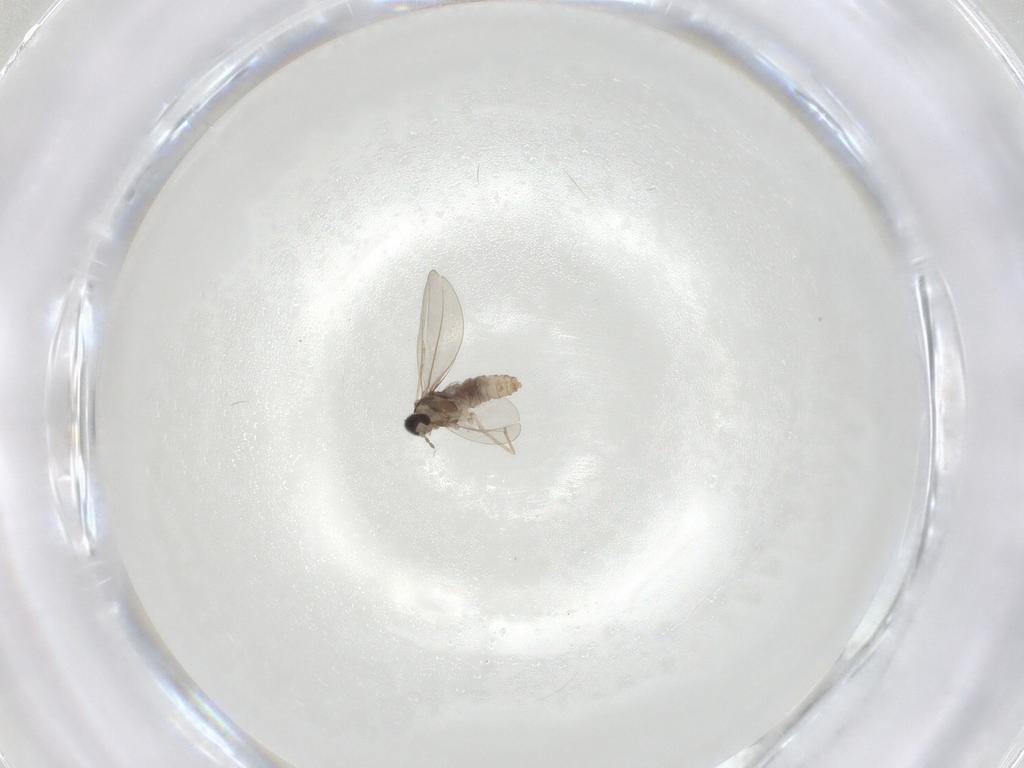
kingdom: Animalia
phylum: Arthropoda
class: Insecta
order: Diptera
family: Cecidomyiidae
